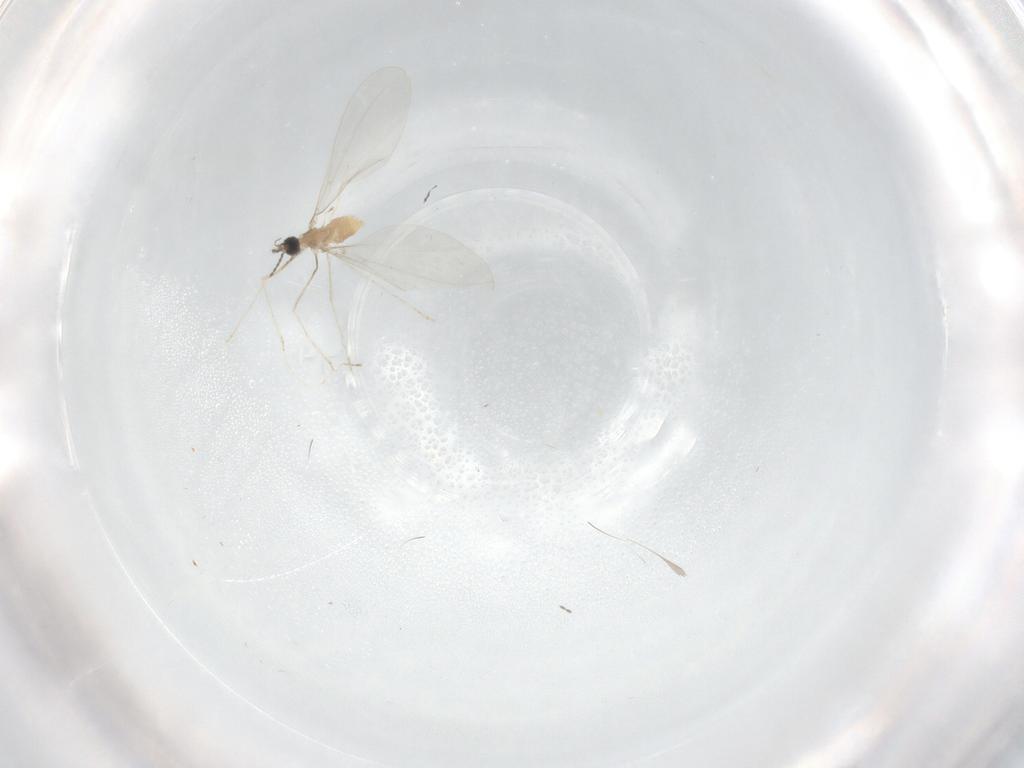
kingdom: Animalia
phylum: Arthropoda
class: Insecta
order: Diptera
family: Cecidomyiidae
